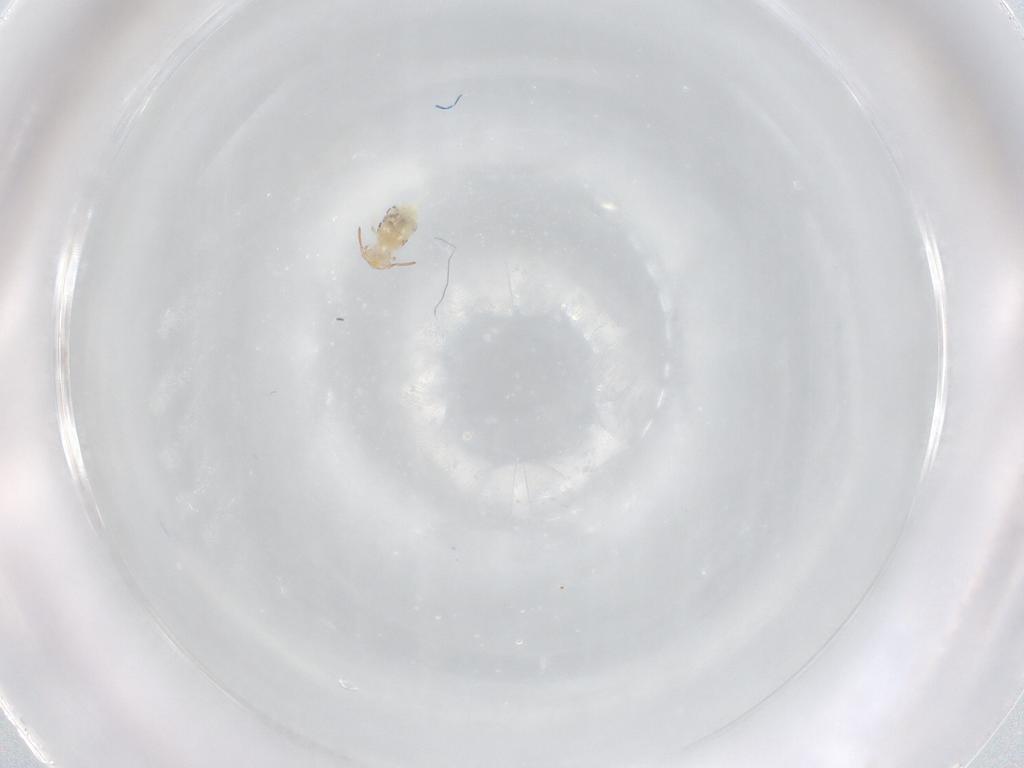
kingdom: Animalia
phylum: Arthropoda
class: Collembola
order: Symphypleona
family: Bourletiellidae
